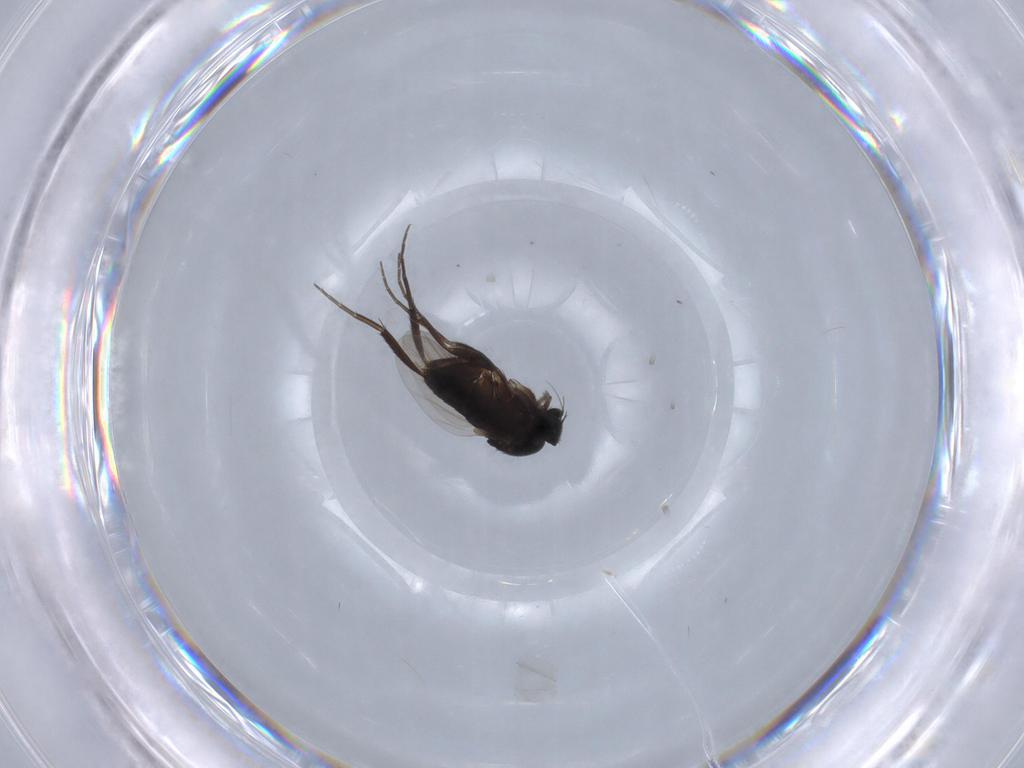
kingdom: Animalia
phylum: Arthropoda
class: Insecta
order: Diptera
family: Phoridae
